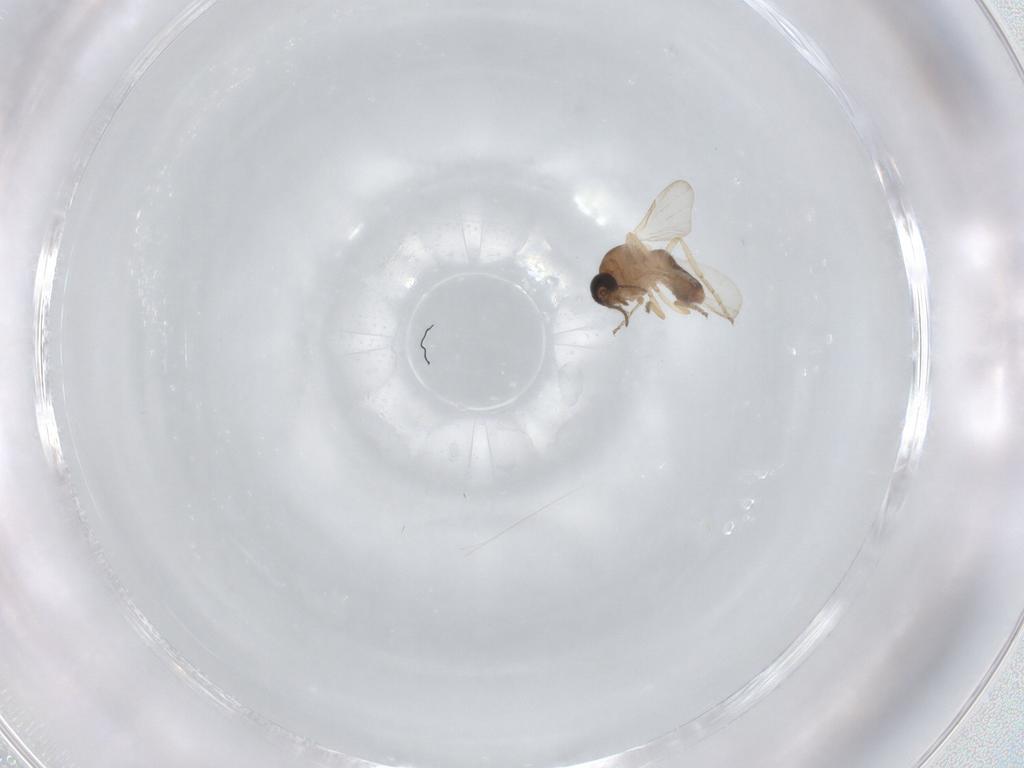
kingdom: Animalia
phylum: Arthropoda
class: Insecta
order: Diptera
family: Ceratopogonidae
